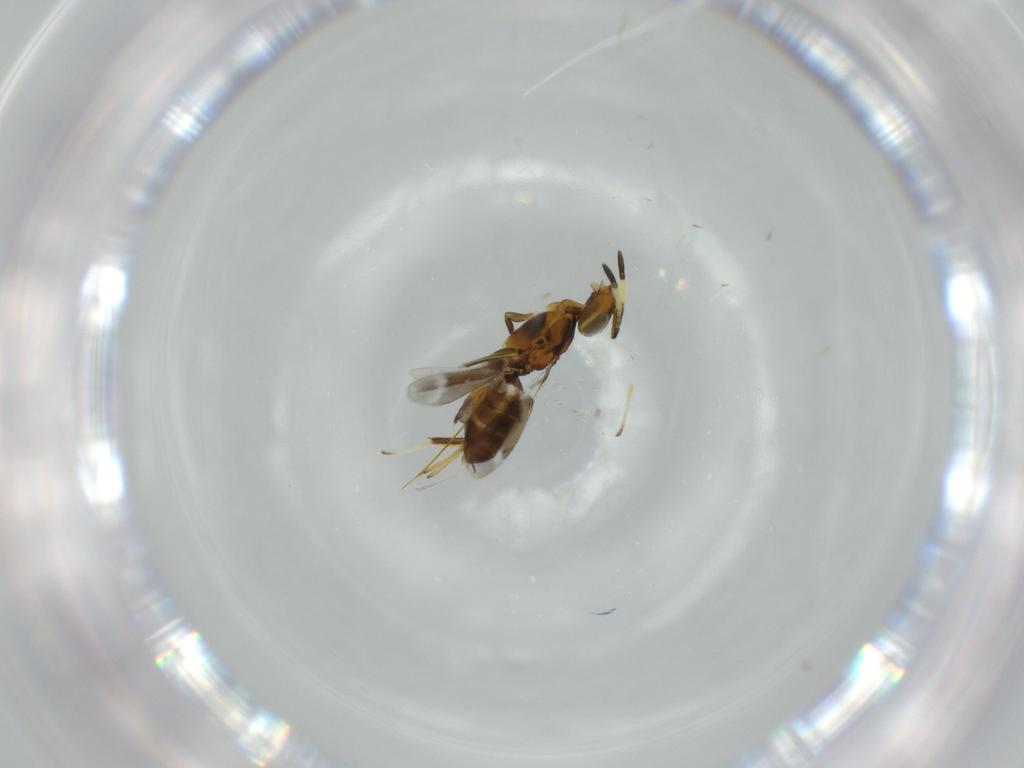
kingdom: Animalia
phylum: Arthropoda
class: Insecta
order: Hymenoptera
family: Eupelmidae
